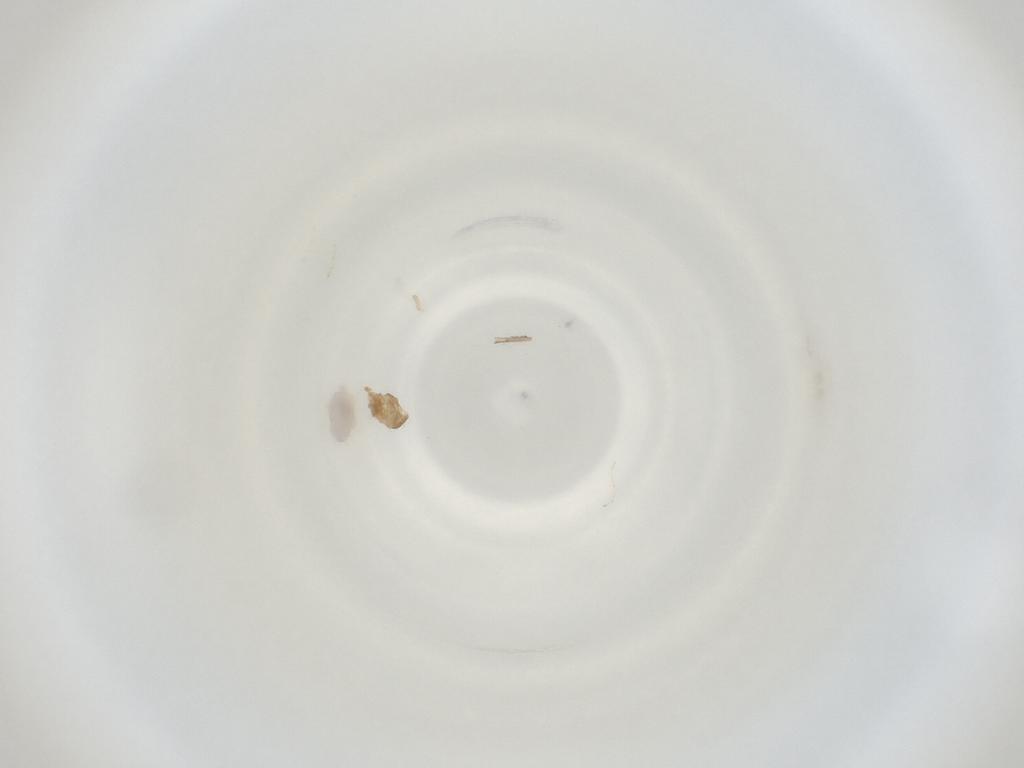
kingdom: Animalia
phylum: Arthropoda
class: Insecta
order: Diptera
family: Cecidomyiidae
